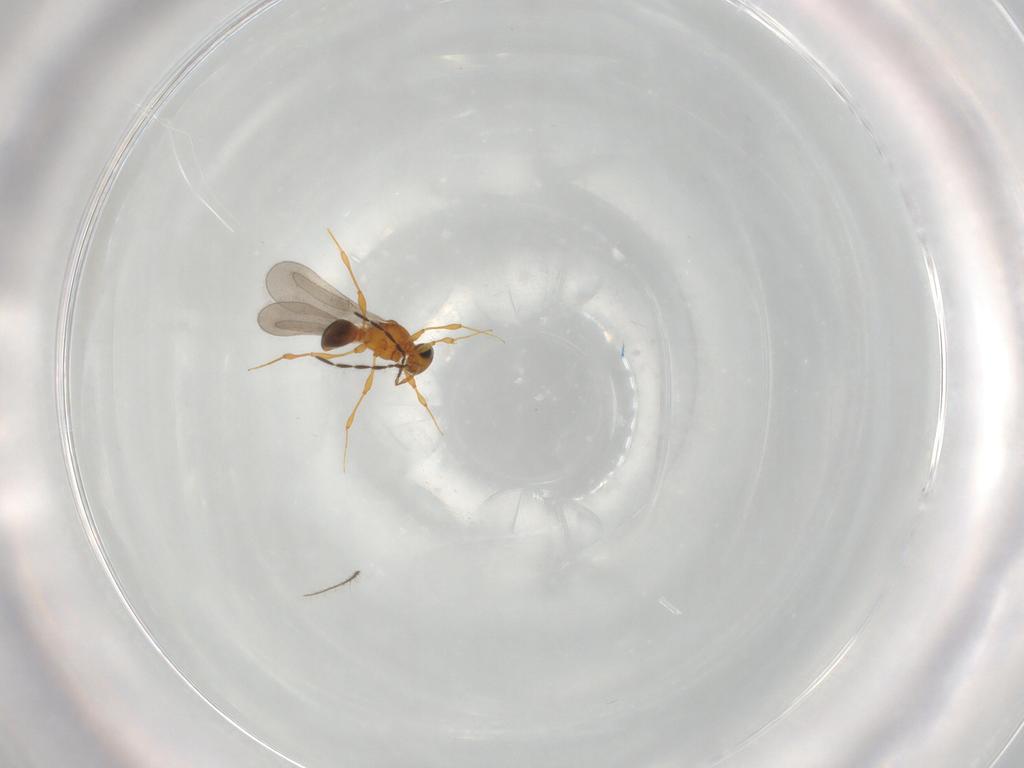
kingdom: Animalia
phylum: Arthropoda
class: Insecta
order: Hymenoptera
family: Platygastridae
